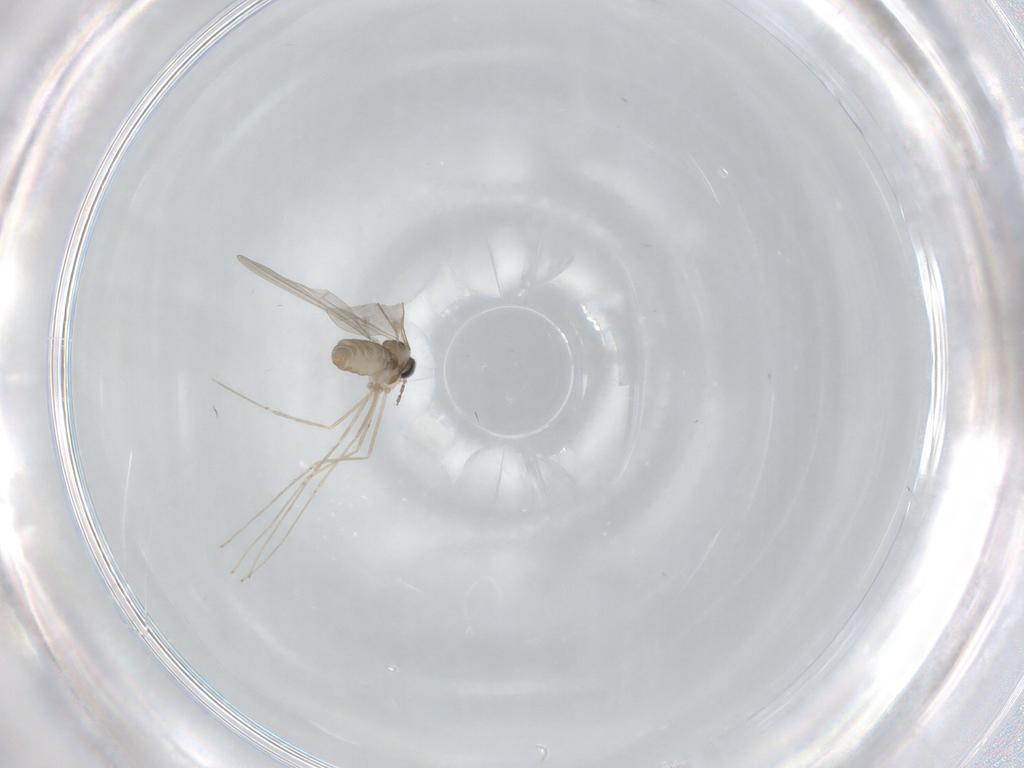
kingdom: Animalia
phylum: Arthropoda
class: Insecta
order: Diptera
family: Cecidomyiidae
